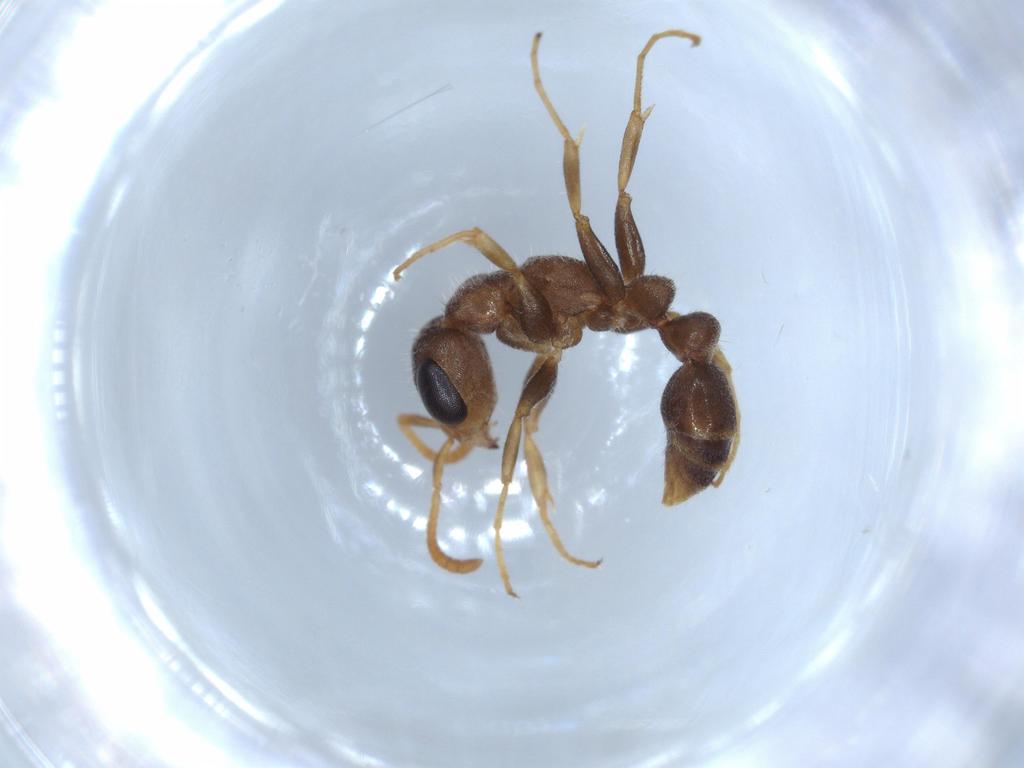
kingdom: Animalia
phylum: Arthropoda
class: Insecta
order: Hymenoptera
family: Formicidae
